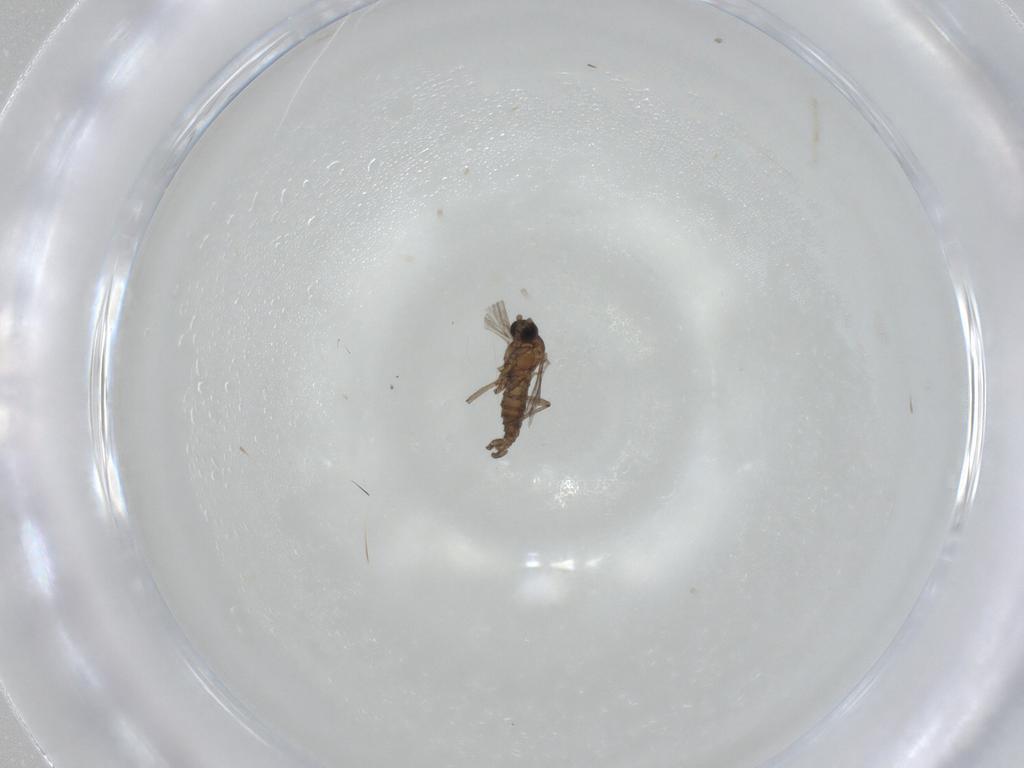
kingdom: Animalia
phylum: Arthropoda
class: Insecta
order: Diptera
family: Sciaridae
